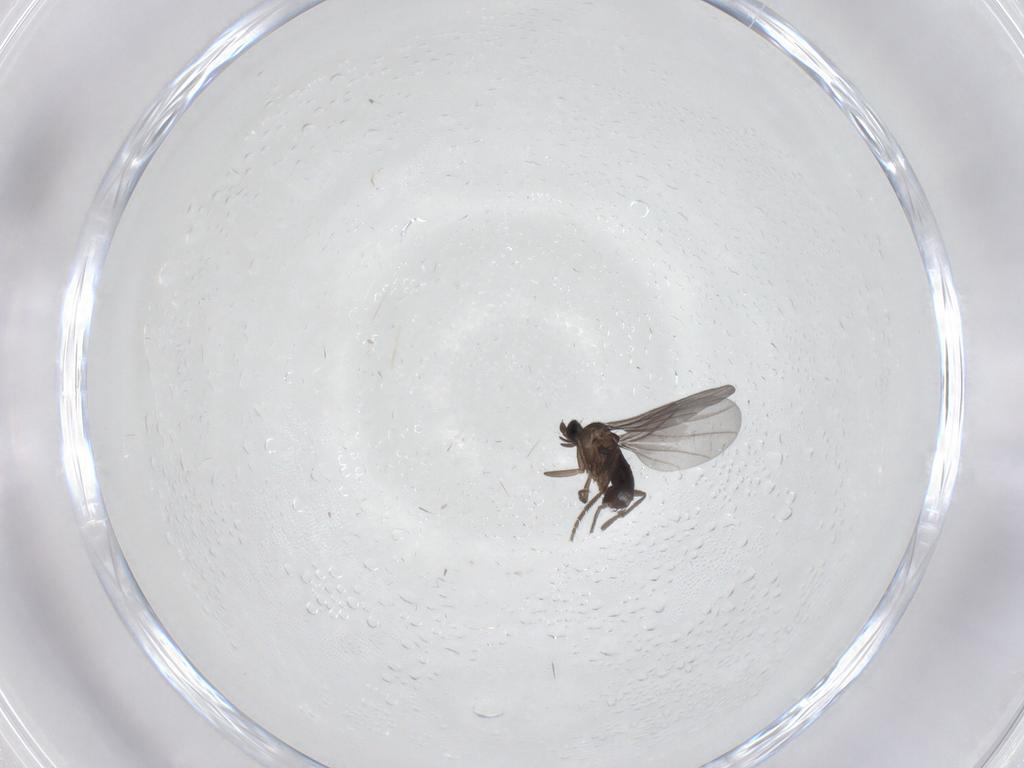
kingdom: Animalia
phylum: Arthropoda
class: Insecta
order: Diptera
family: Phoridae
